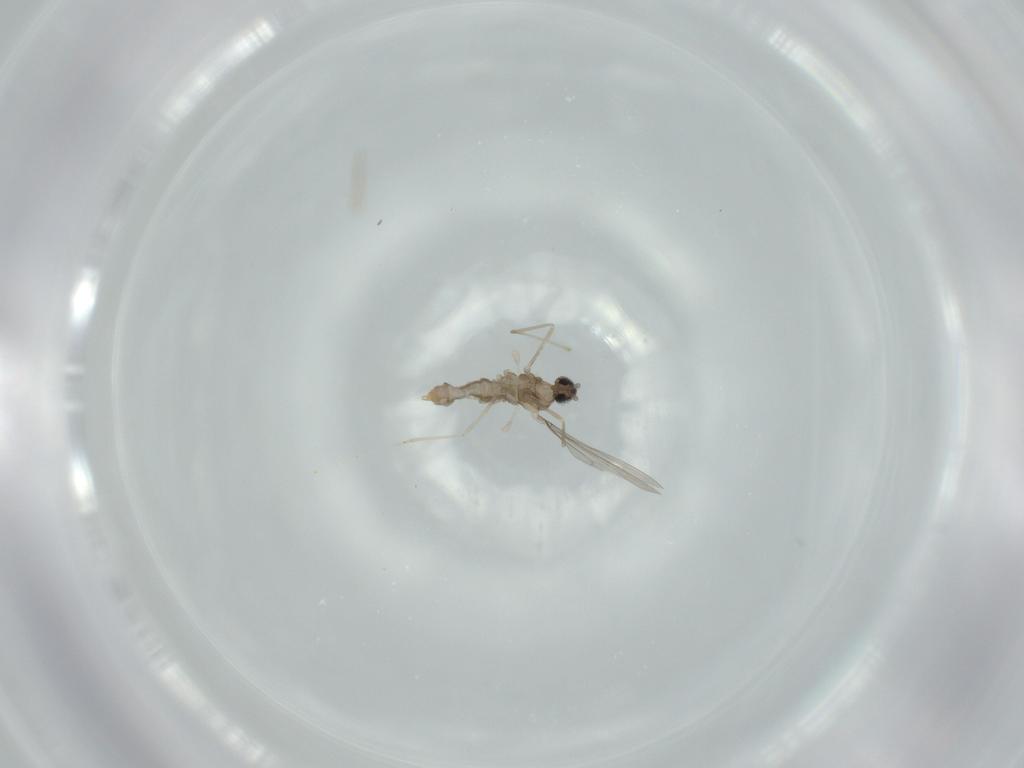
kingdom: Animalia
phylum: Arthropoda
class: Insecta
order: Diptera
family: Cecidomyiidae
